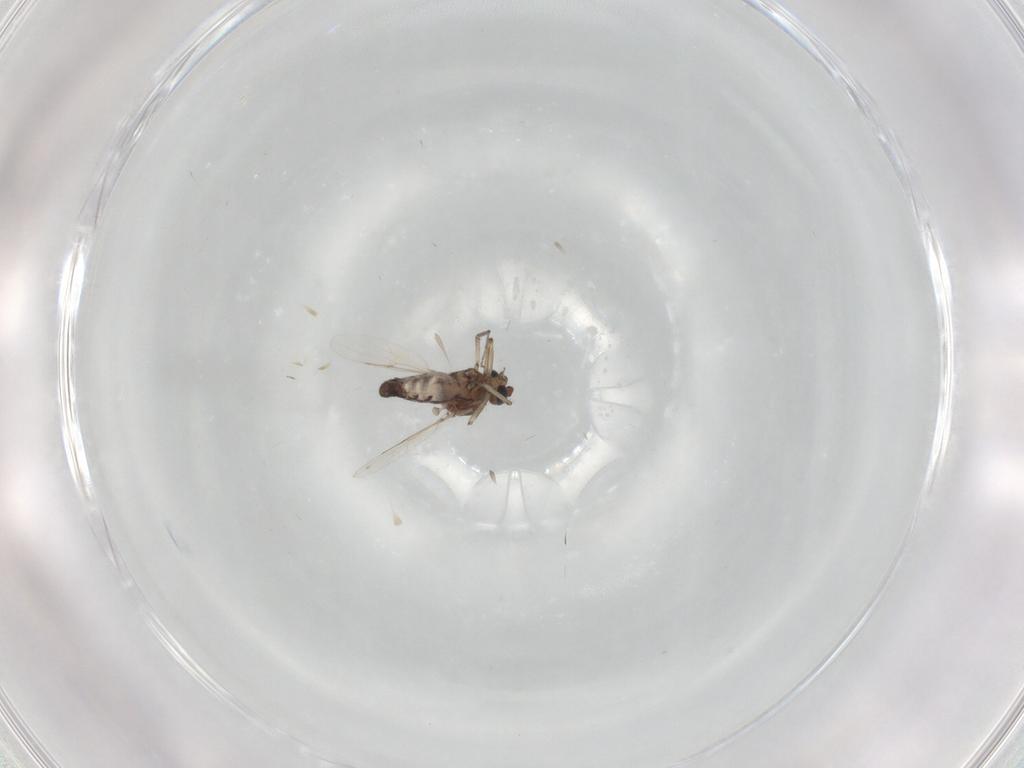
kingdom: Animalia
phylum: Arthropoda
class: Insecta
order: Diptera
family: Ceratopogonidae
